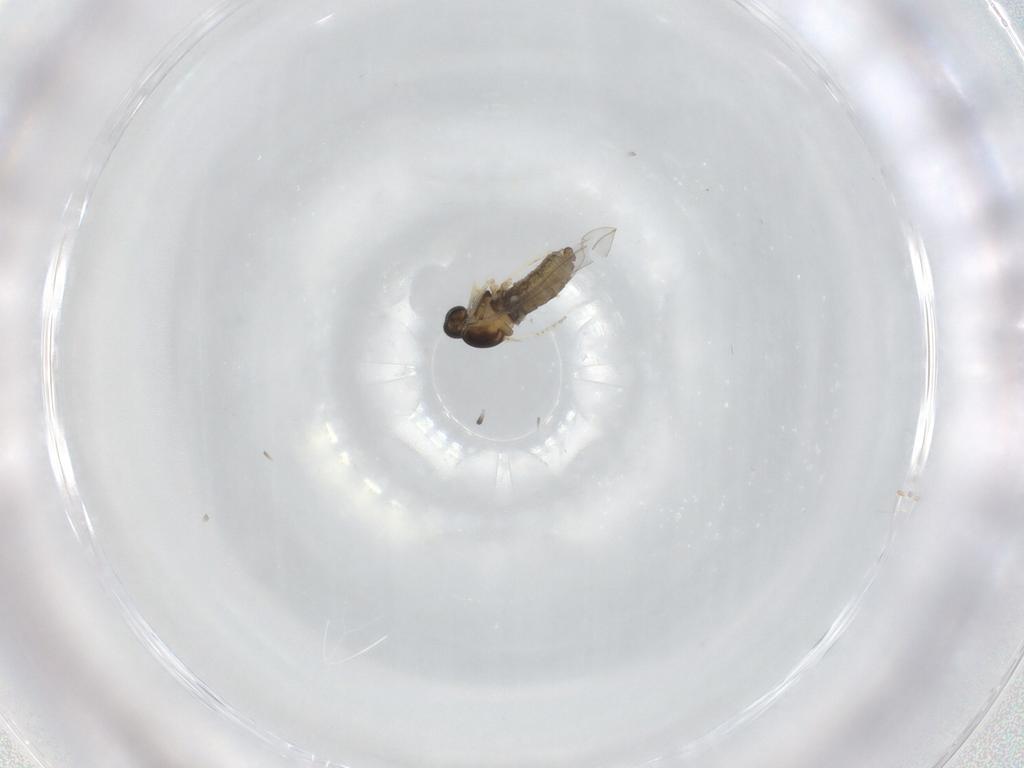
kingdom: Animalia
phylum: Arthropoda
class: Insecta
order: Diptera
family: Cecidomyiidae
